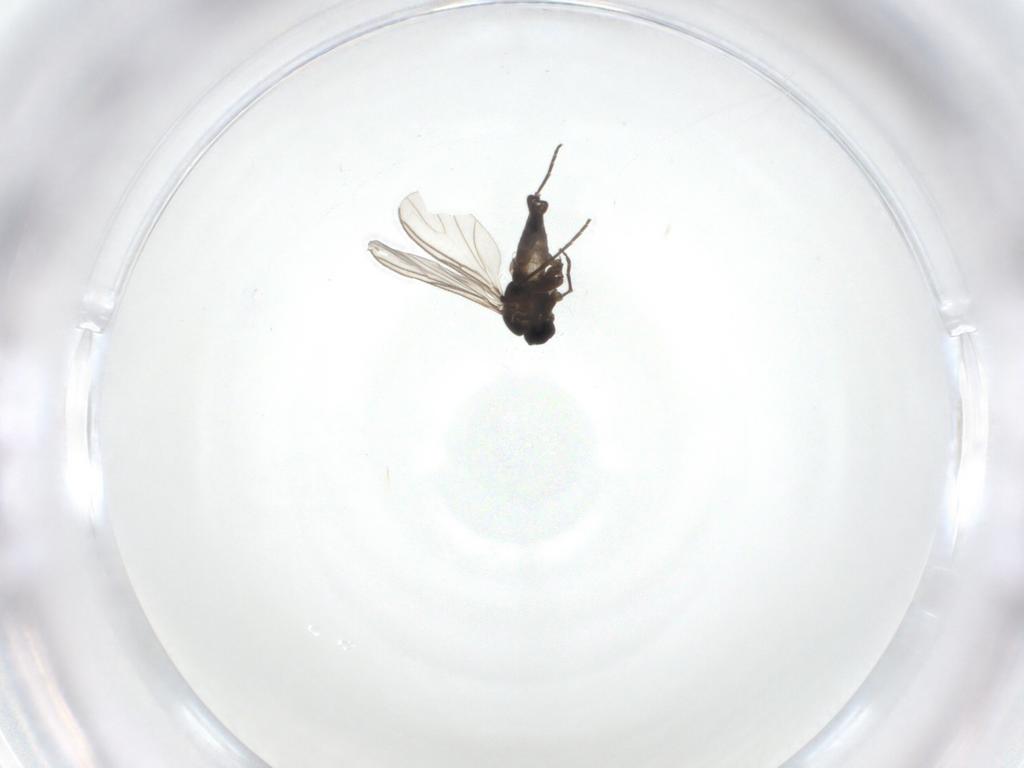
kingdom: Animalia
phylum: Arthropoda
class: Insecta
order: Diptera
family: Sciaridae
